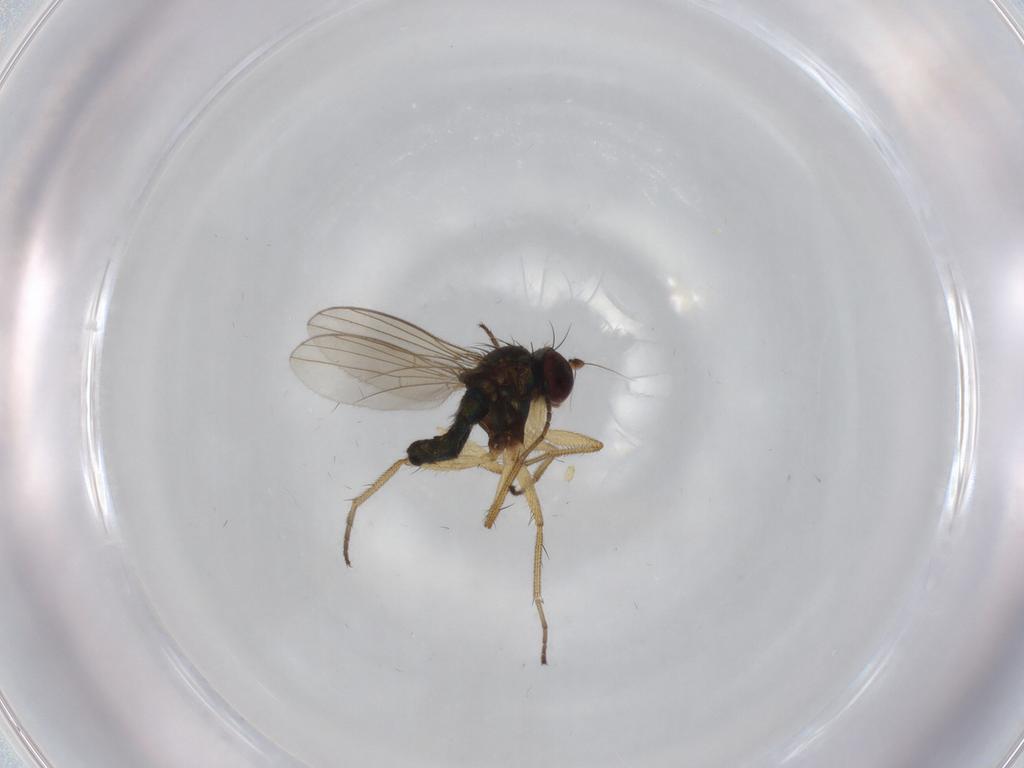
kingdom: Animalia
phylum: Arthropoda
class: Insecta
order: Diptera
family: Dolichopodidae
